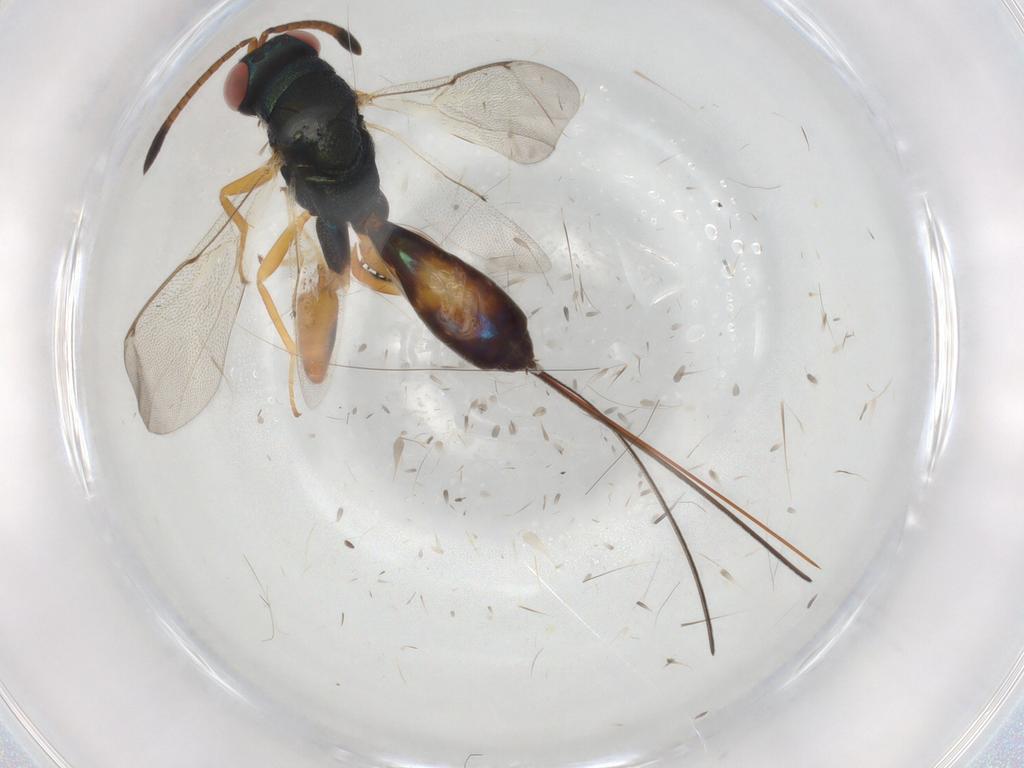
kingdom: Animalia
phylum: Arthropoda
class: Insecta
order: Hymenoptera
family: Torymidae
